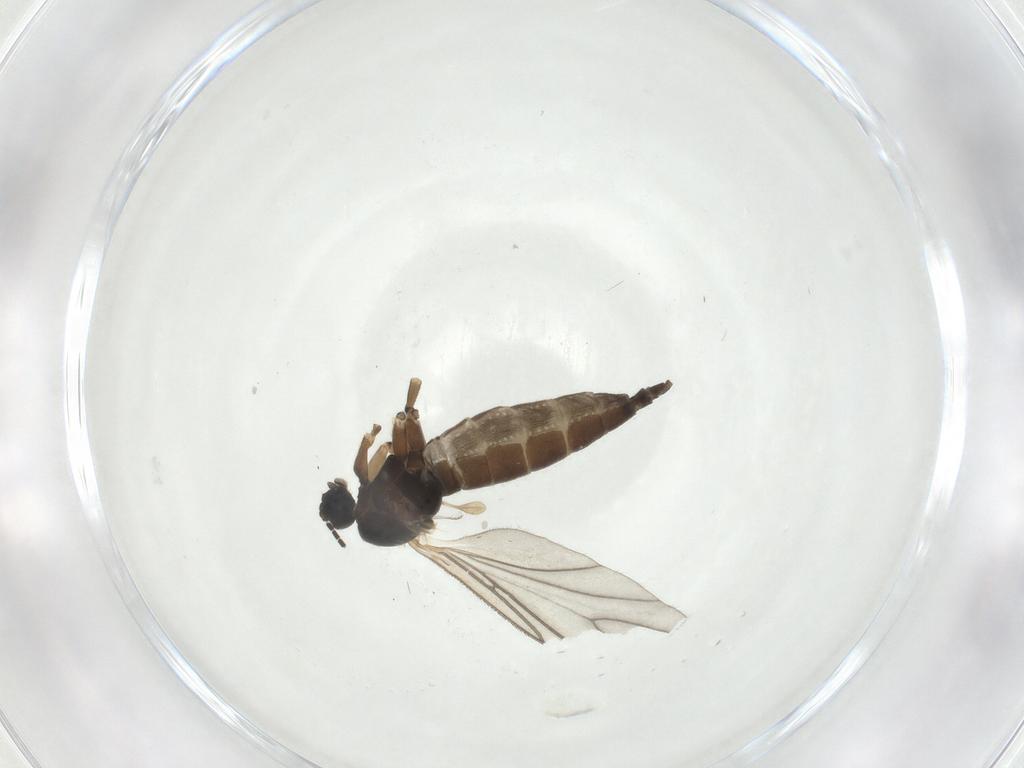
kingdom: Animalia
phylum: Arthropoda
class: Insecta
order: Diptera
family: Sciaridae
